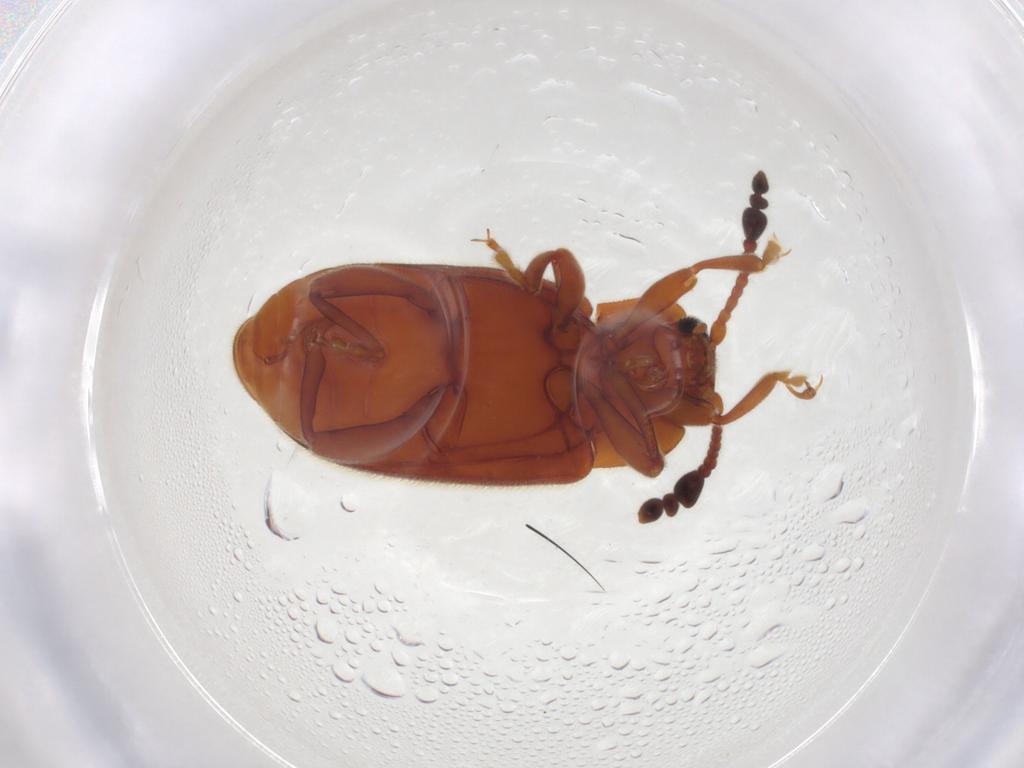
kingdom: Animalia
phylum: Arthropoda
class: Insecta
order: Coleoptera
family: Endomychidae
